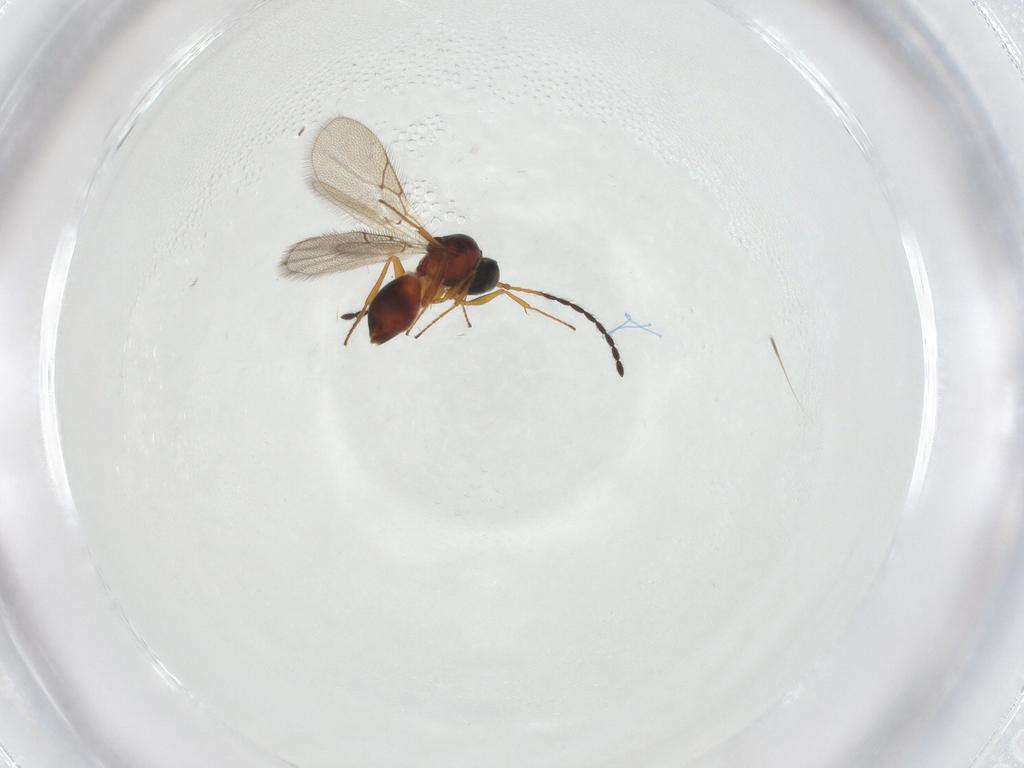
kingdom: Animalia
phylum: Arthropoda
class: Insecta
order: Hymenoptera
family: Figitidae
